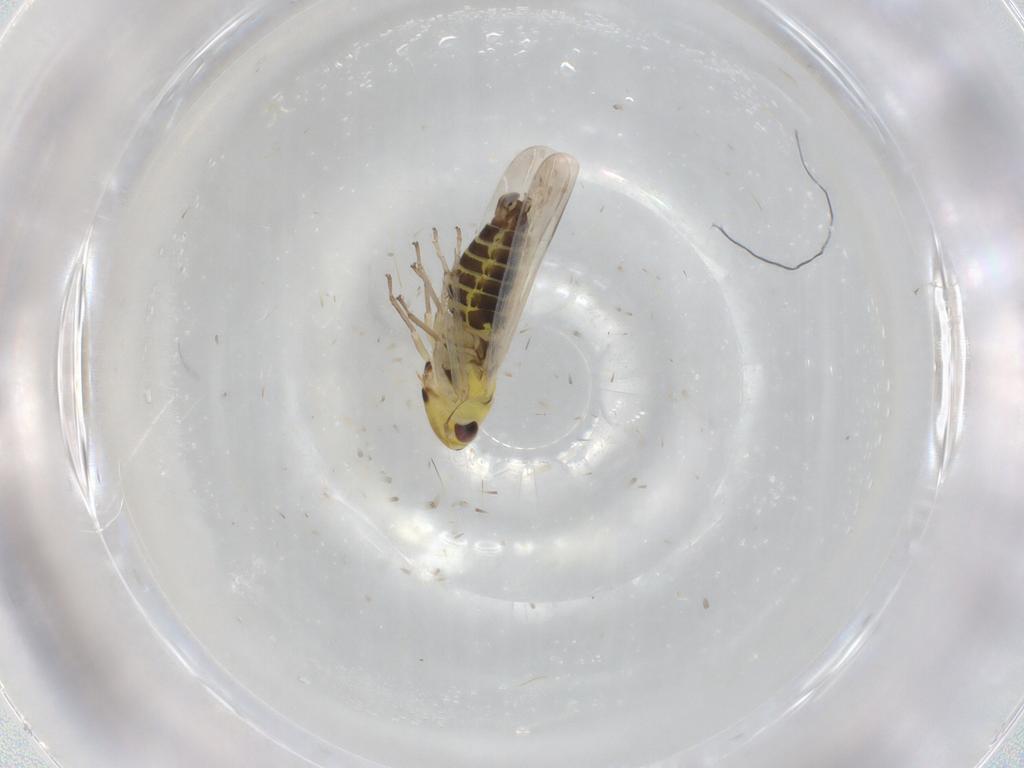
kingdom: Animalia
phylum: Arthropoda
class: Insecta
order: Hemiptera
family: Cicadellidae
